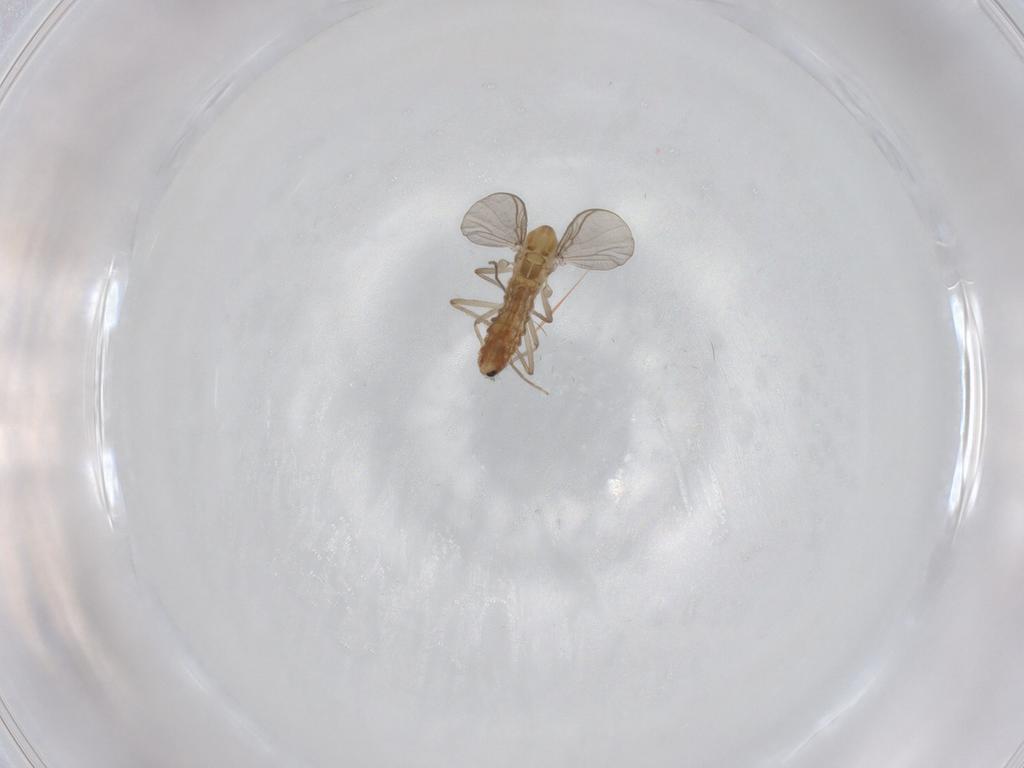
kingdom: Animalia
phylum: Arthropoda
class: Insecta
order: Diptera
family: Chironomidae
